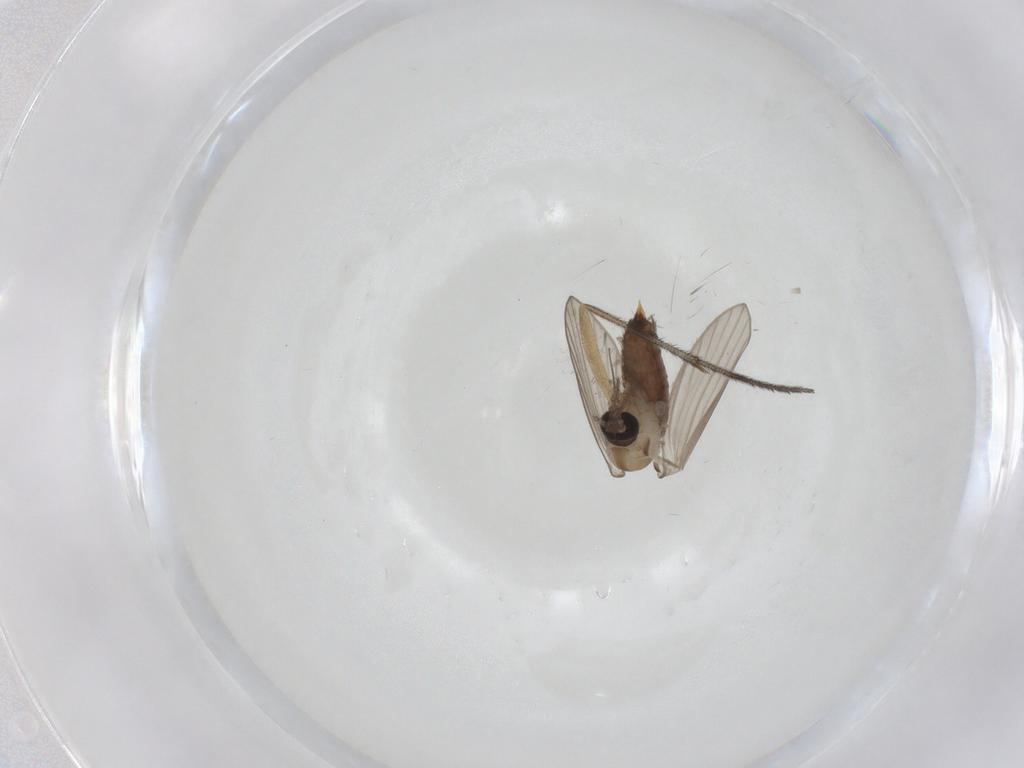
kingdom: Animalia
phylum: Arthropoda
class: Insecta
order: Diptera
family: Psychodidae
